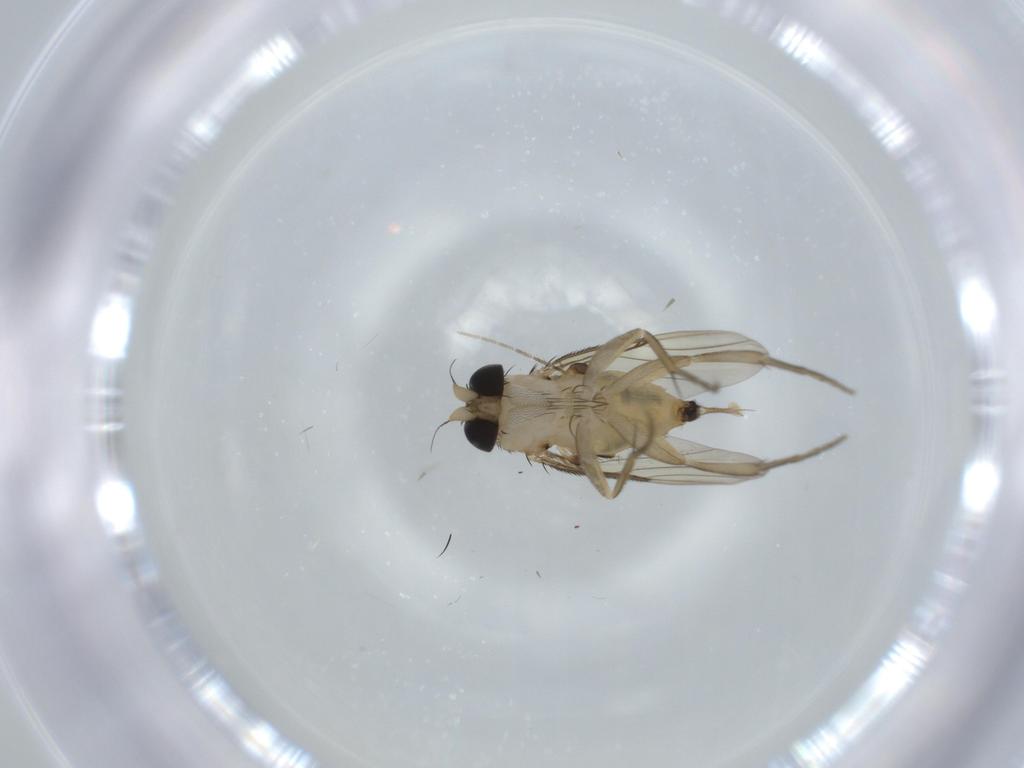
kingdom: Animalia
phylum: Arthropoda
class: Insecta
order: Diptera
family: Phoridae
